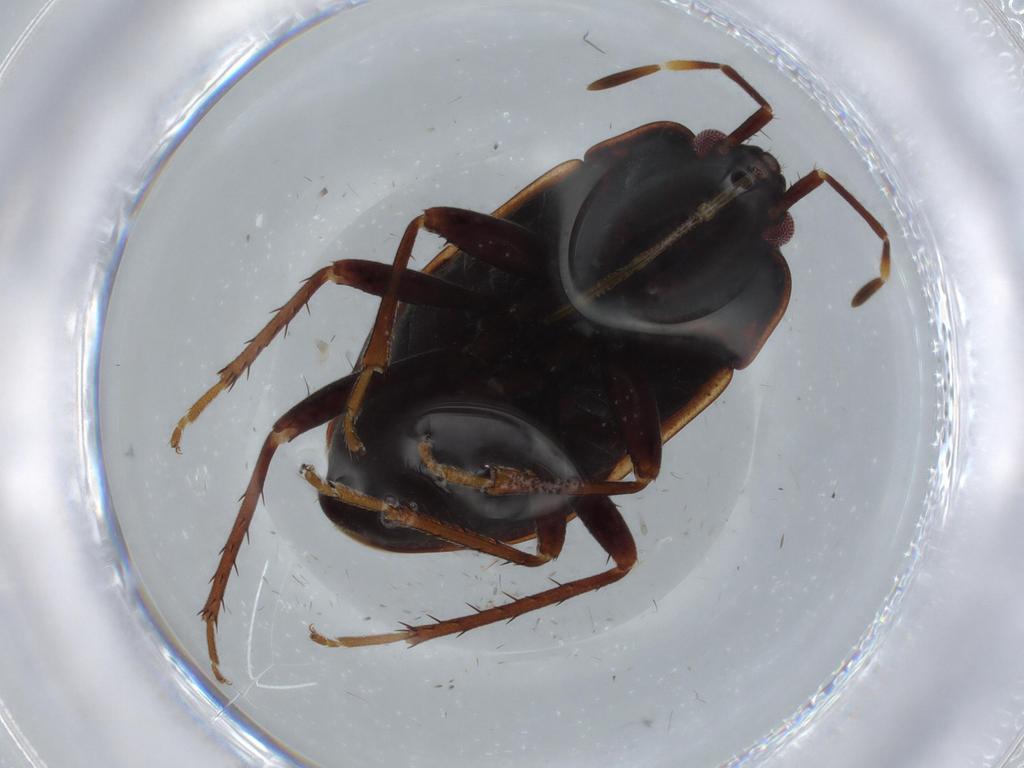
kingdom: Animalia
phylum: Arthropoda
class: Insecta
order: Hemiptera
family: Rhyparochromidae
